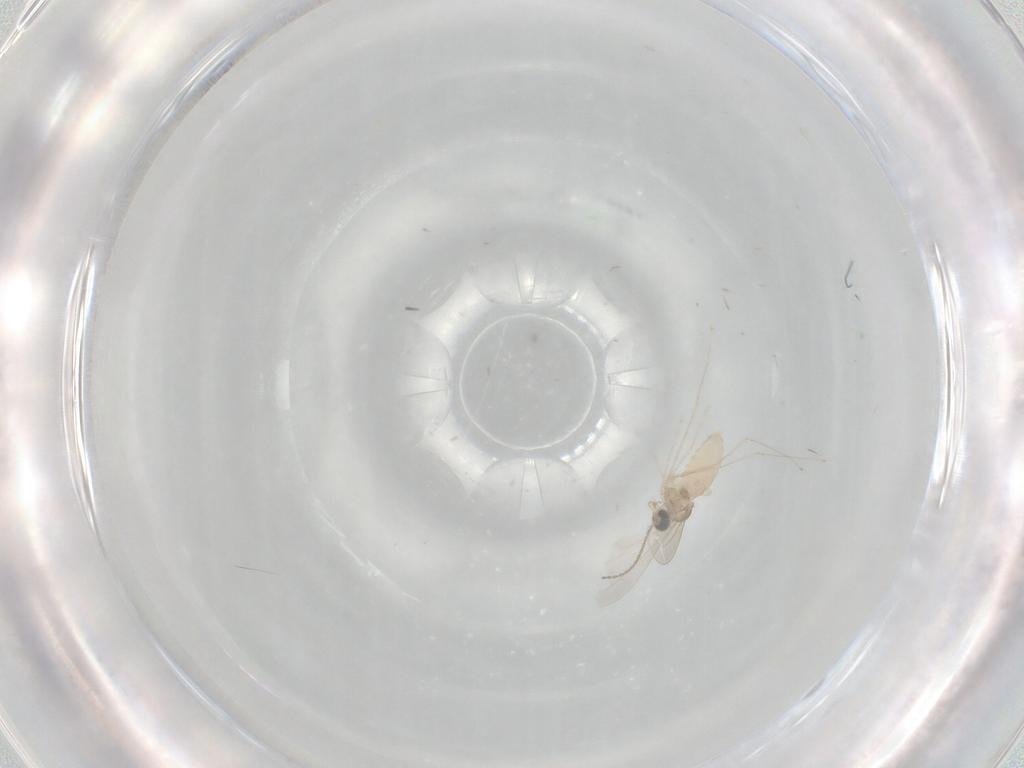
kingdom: Animalia
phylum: Arthropoda
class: Insecta
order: Diptera
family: Cecidomyiidae
